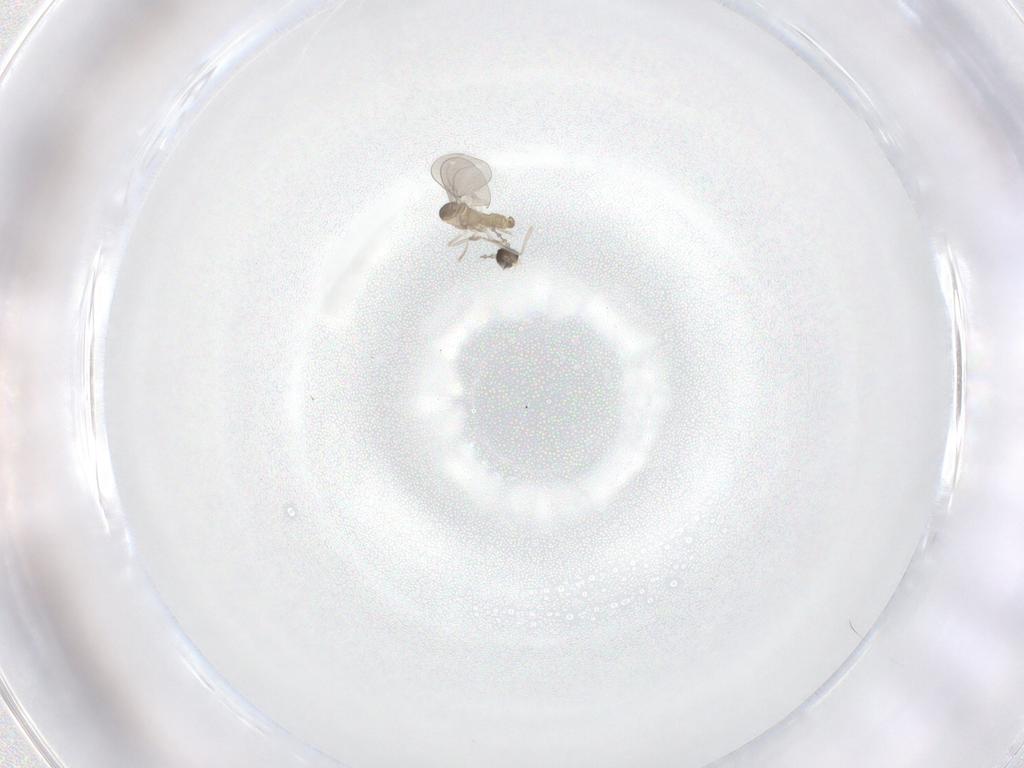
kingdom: Animalia
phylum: Arthropoda
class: Insecta
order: Diptera
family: Cecidomyiidae
